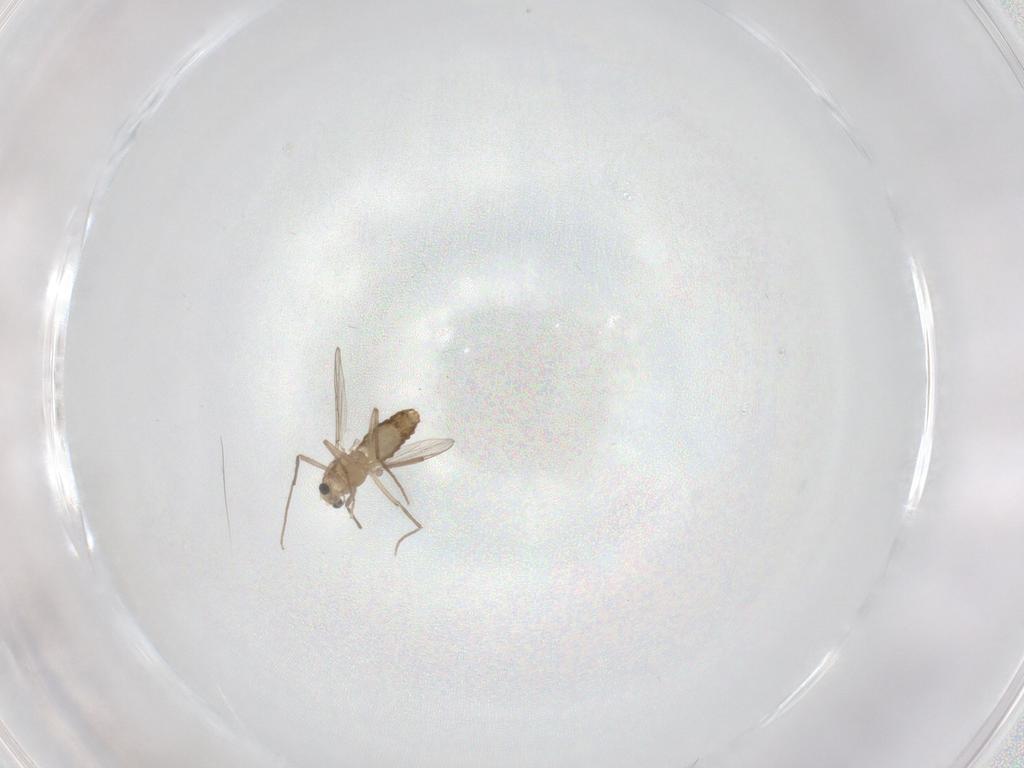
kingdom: Animalia
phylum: Arthropoda
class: Insecta
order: Diptera
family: Chironomidae
